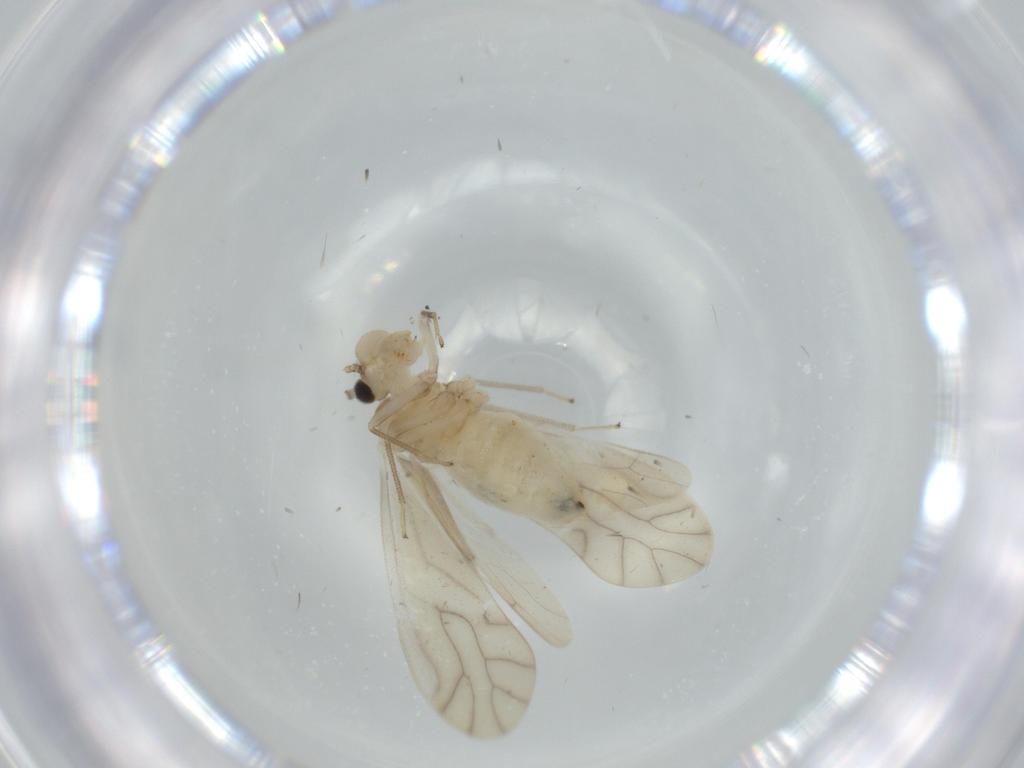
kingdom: Animalia
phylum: Arthropoda
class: Insecta
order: Psocodea
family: Caeciliusidae
